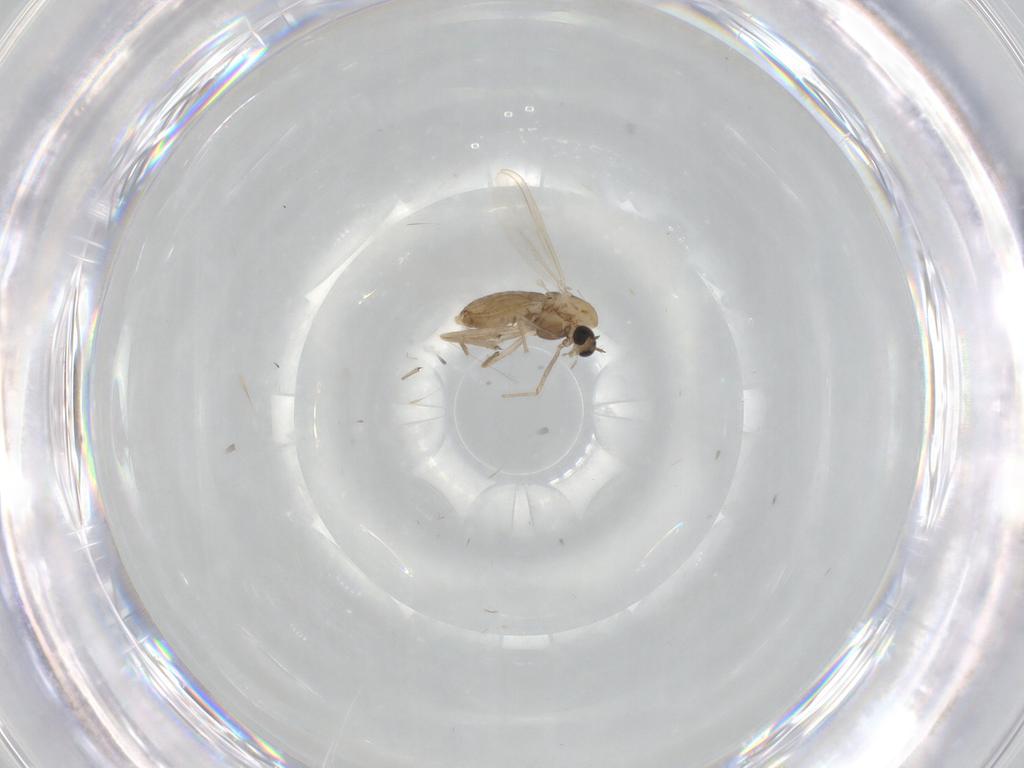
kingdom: Animalia
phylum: Arthropoda
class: Insecta
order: Diptera
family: Chironomidae
